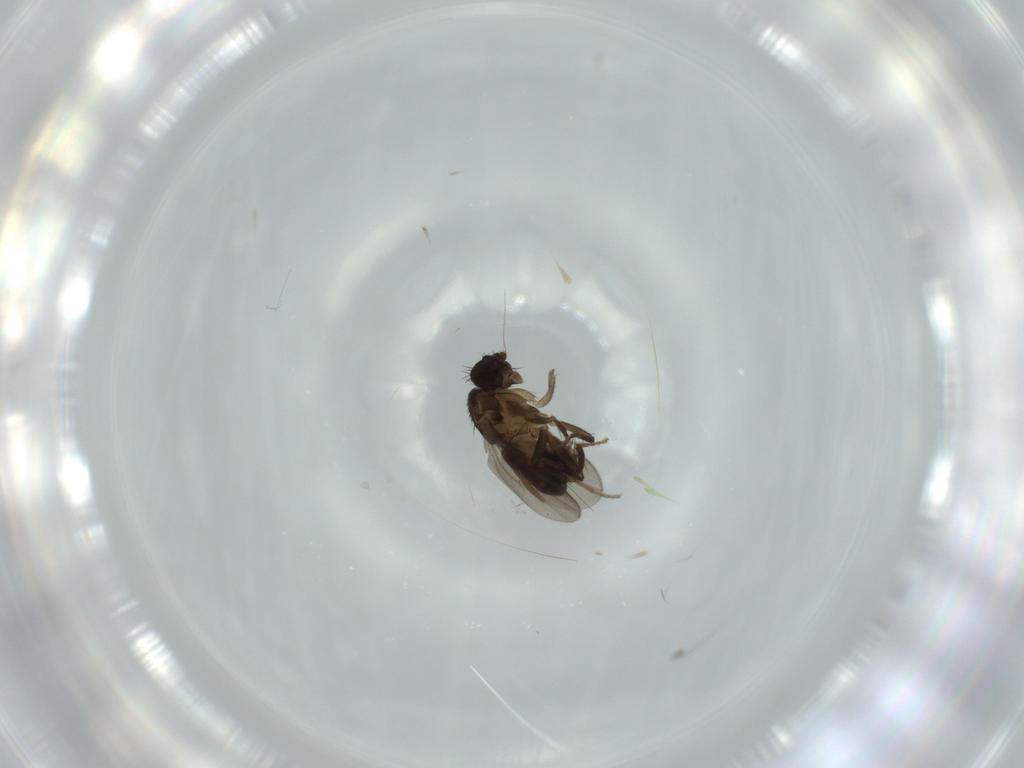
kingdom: Animalia
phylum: Arthropoda
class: Insecta
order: Diptera
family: Sphaeroceridae
